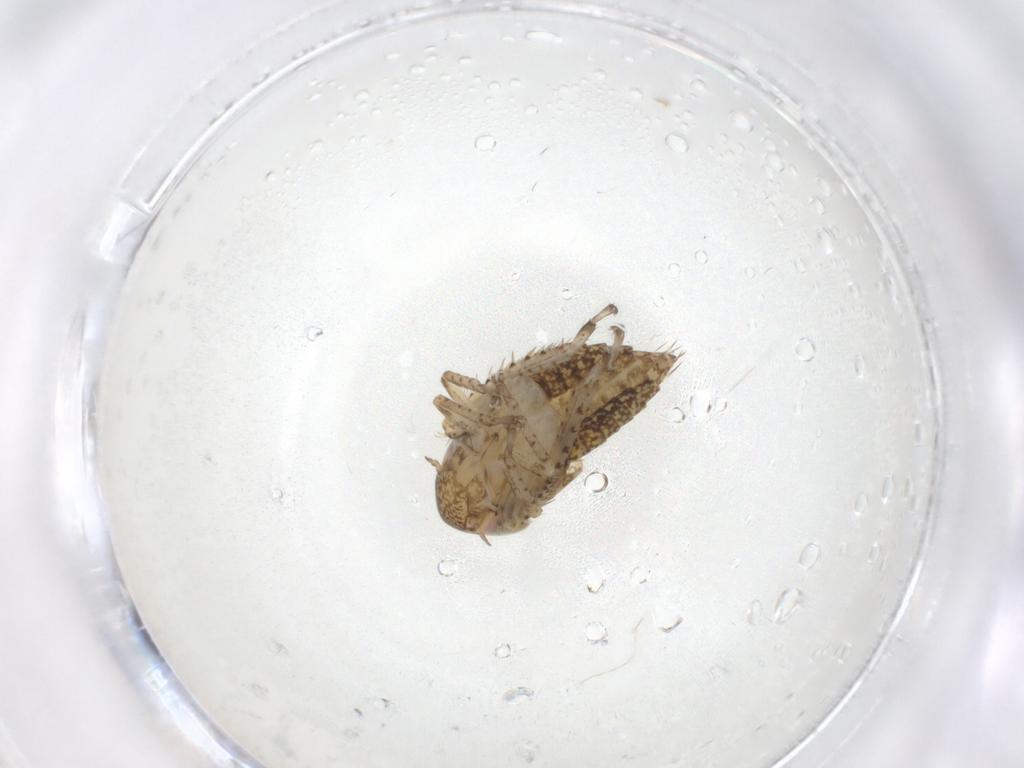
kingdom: Animalia
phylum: Arthropoda
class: Insecta
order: Hemiptera
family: Cicadellidae
